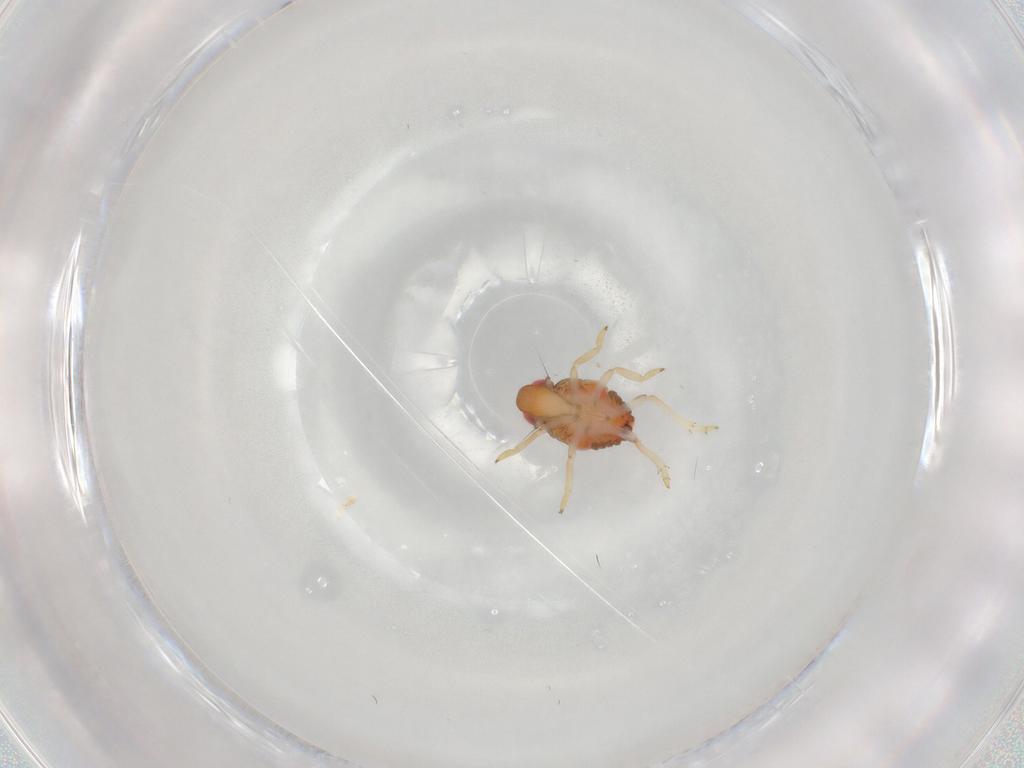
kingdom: Animalia
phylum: Arthropoda
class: Insecta
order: Hemiptera
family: Issidae
